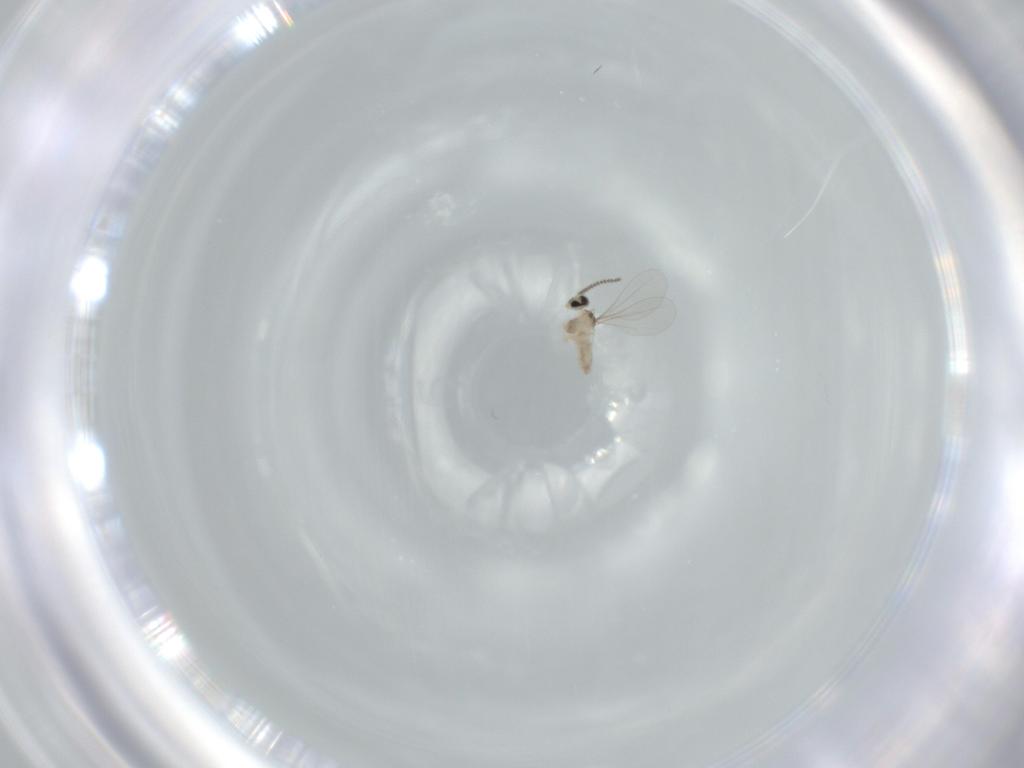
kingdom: Animalia
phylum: Arthropoda
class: Insecta
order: Diptera
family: Cecidomyiidae
